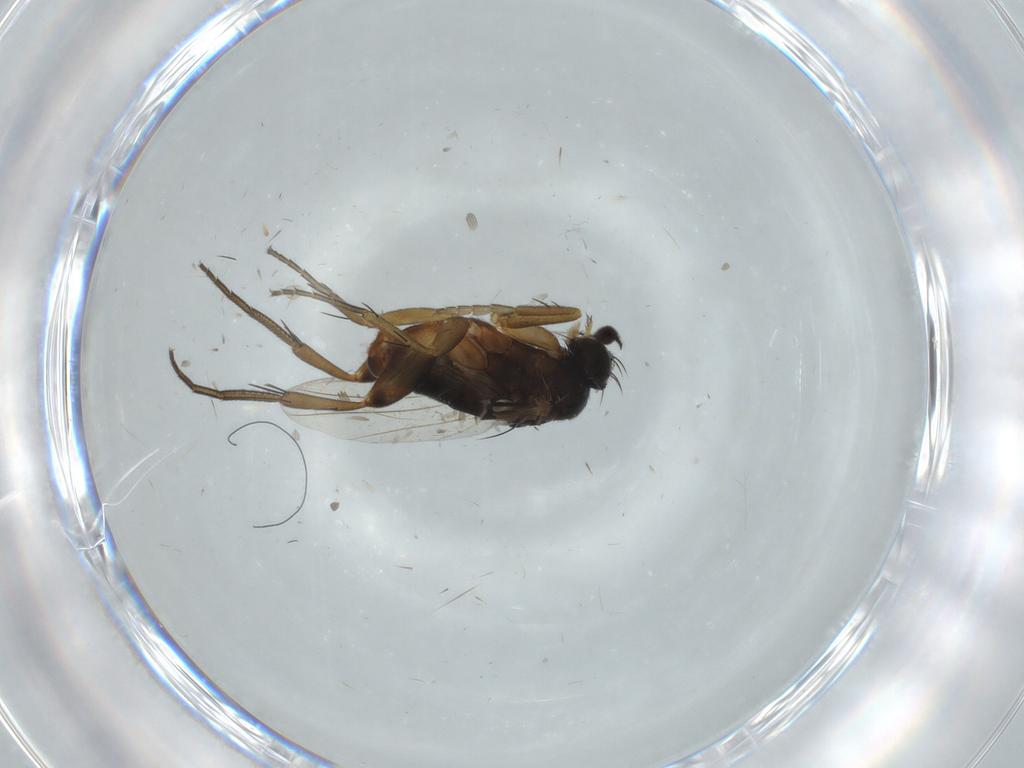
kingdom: Animalia
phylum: Arthropoda
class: Insecta
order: Diptera
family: Phoridae
